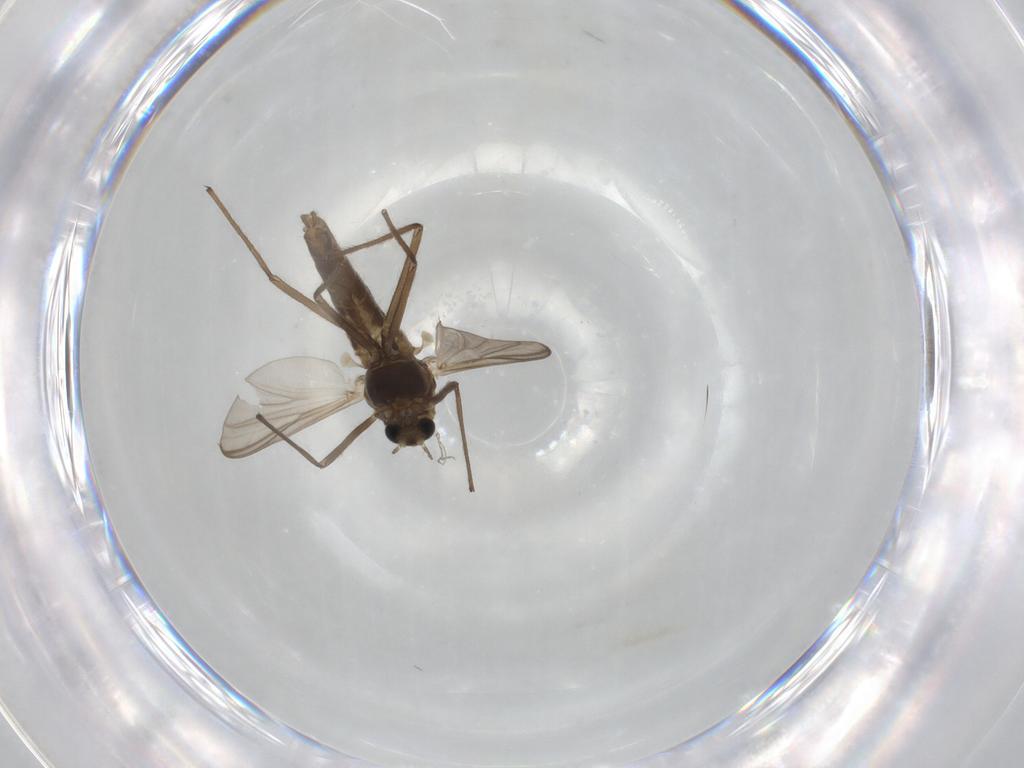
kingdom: Animalia
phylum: Arthropoda
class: Insecta
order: Diptera
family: Chironomidae
